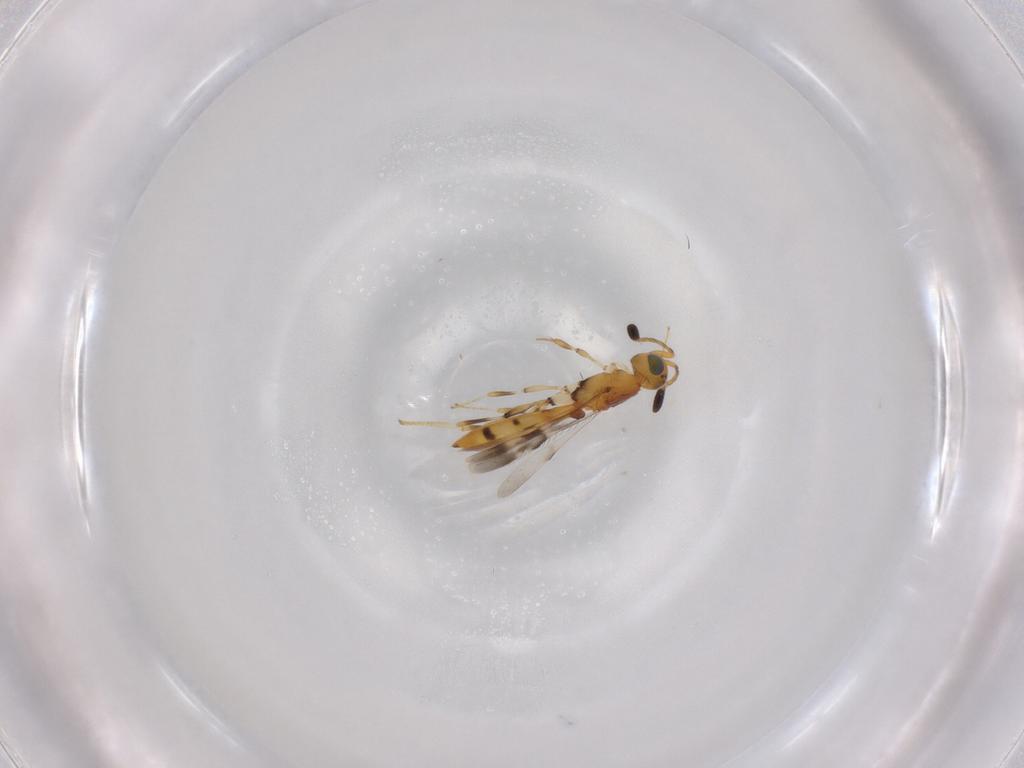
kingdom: Animalia
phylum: Arthropoda
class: Insecta
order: Hymenoptera
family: Scelionidae
